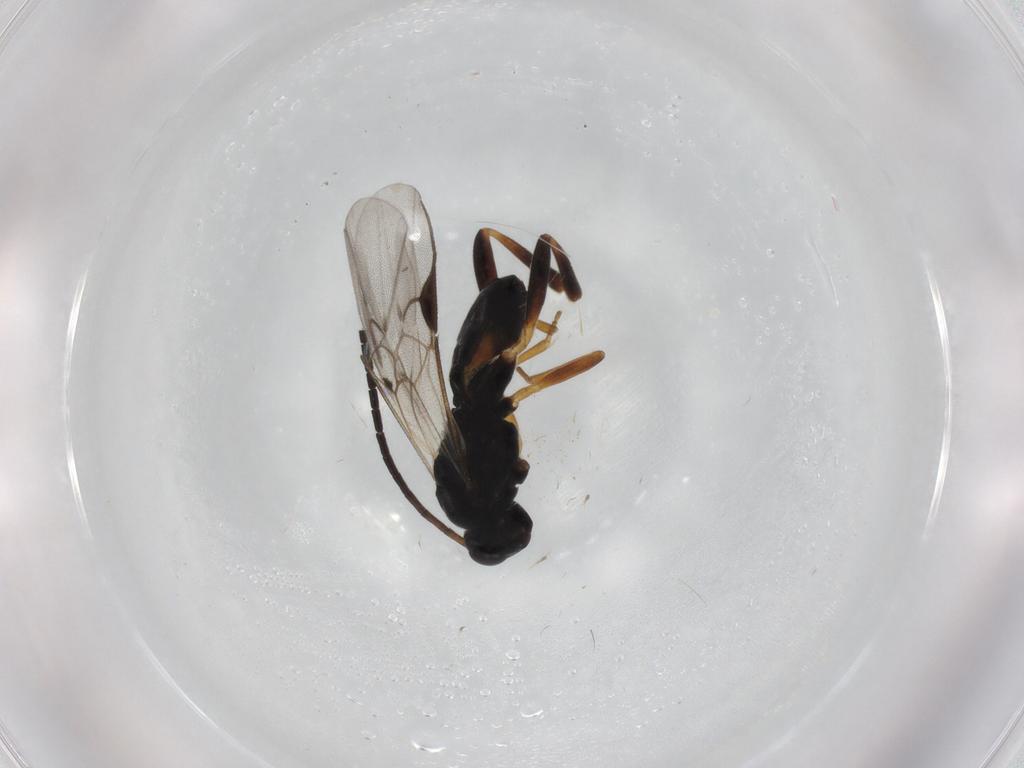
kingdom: Animalia
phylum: Arthropoda
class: Insecta
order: Hymenoptera
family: Braconidae
